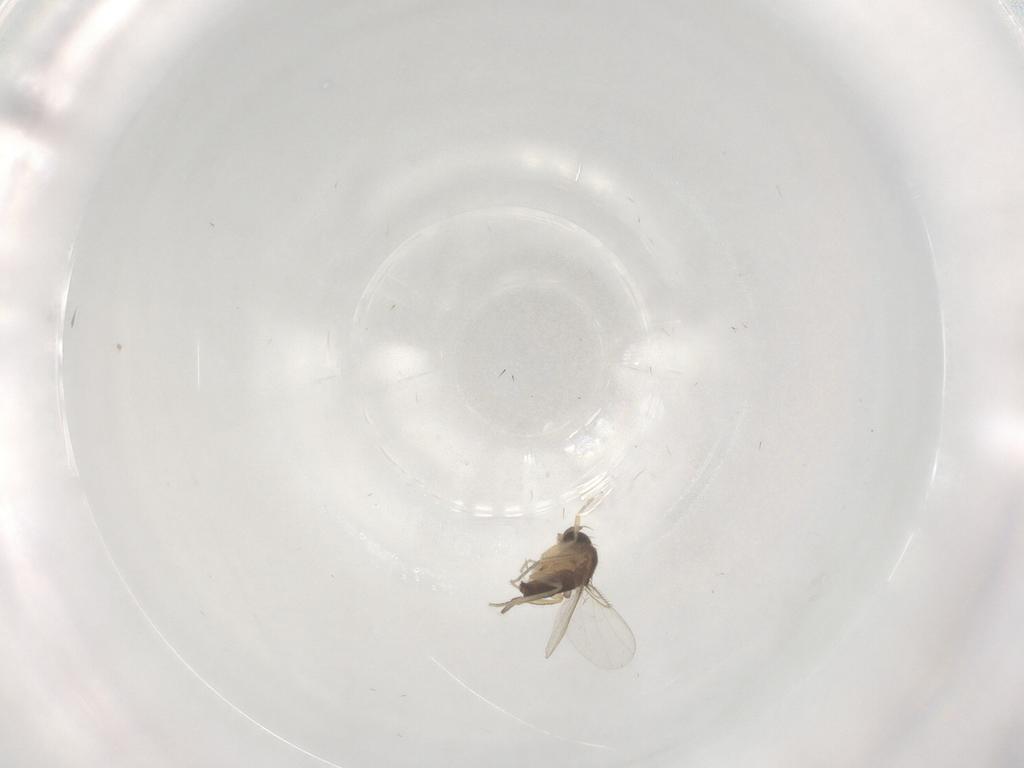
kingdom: Animalia
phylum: Arthropoda
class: Insecta
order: Diptera
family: Phoridae
